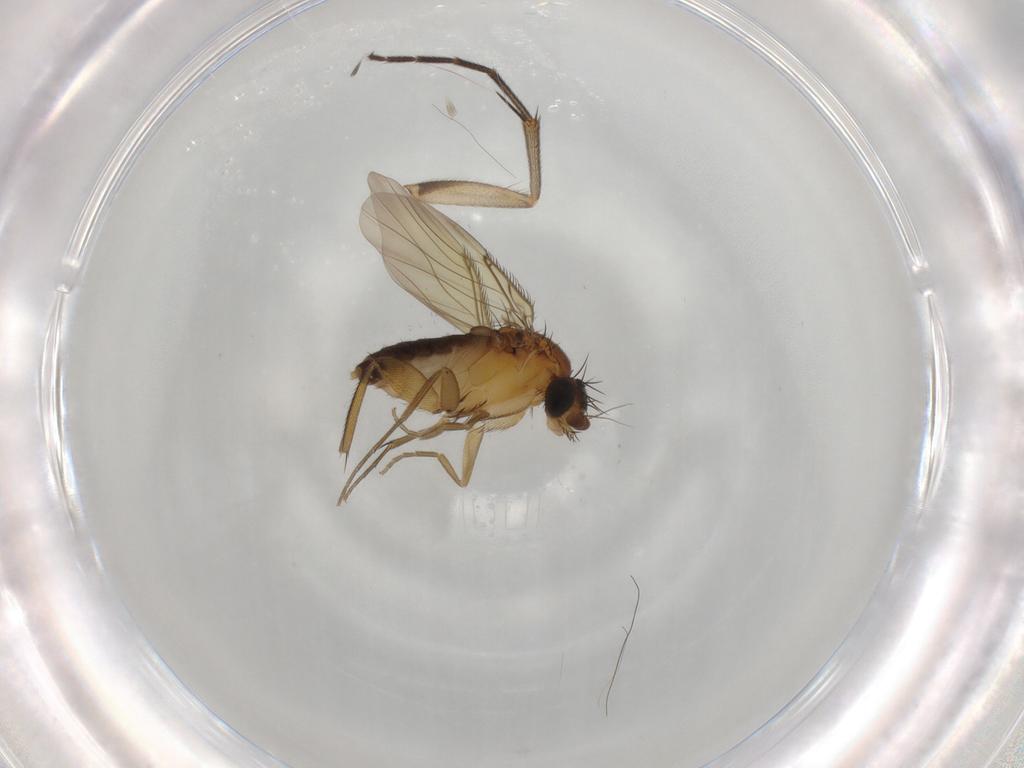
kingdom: Animalia
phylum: Arthropoda
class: Insecta
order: Diptera
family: Phoridae
